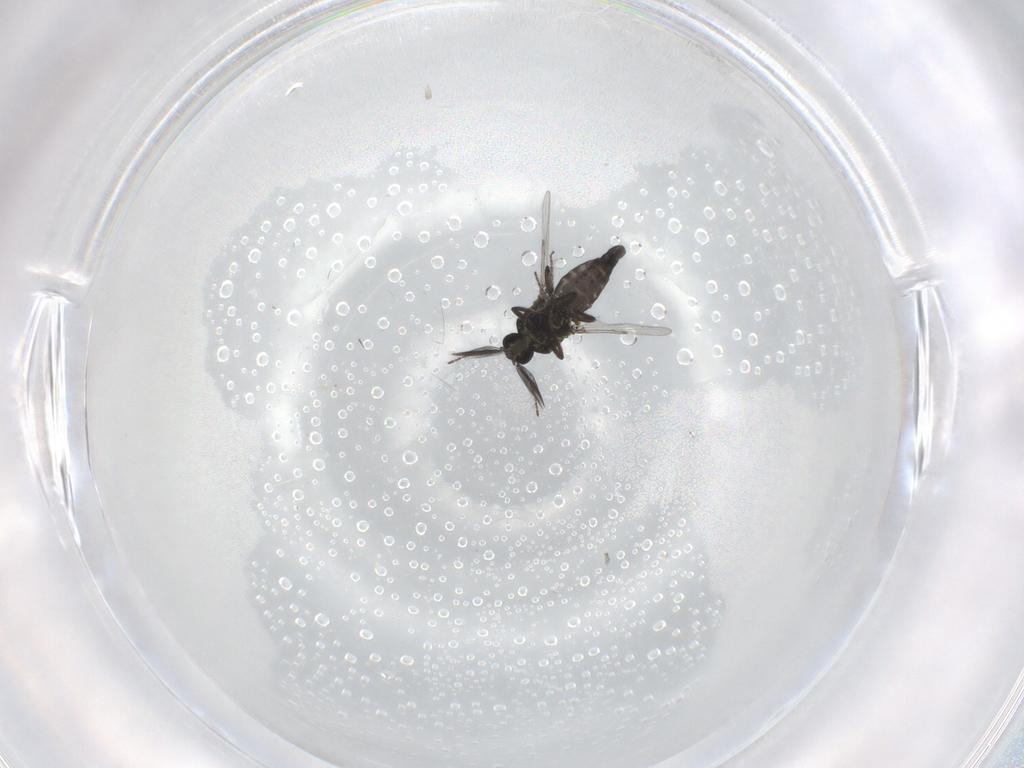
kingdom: Animalia
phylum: Arthropoda
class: Insecta
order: Diptera
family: Ceratopogonidae
